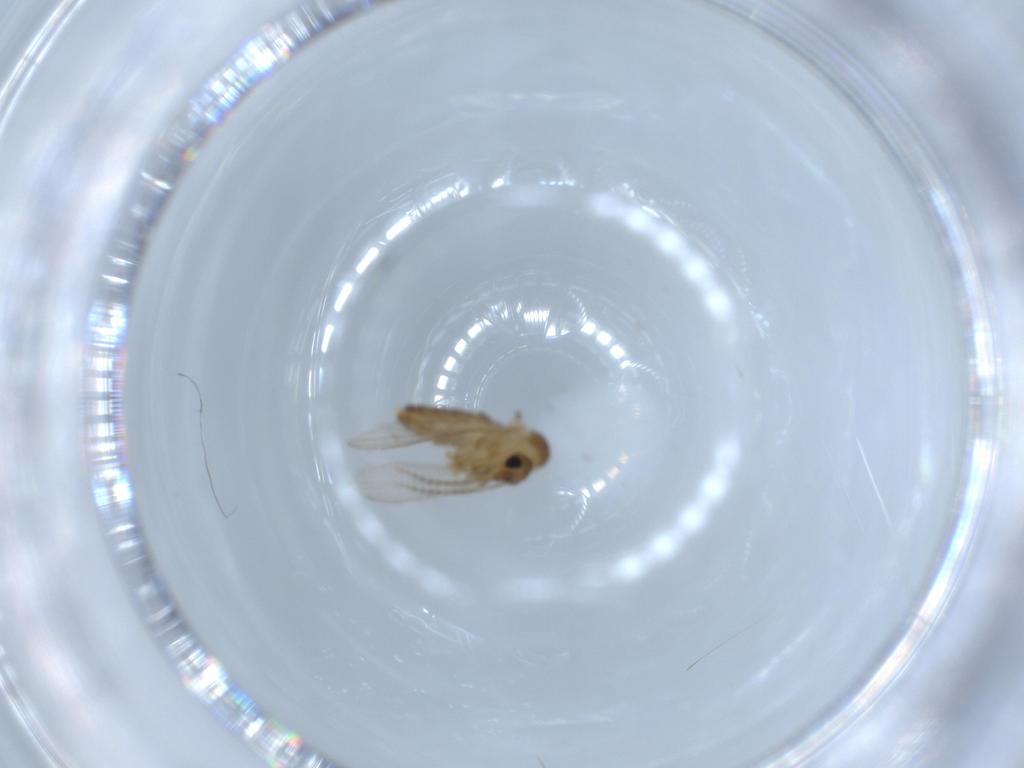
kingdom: Animalia
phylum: Arthropoda
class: Insecta
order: Diptera
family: Psychodidae
